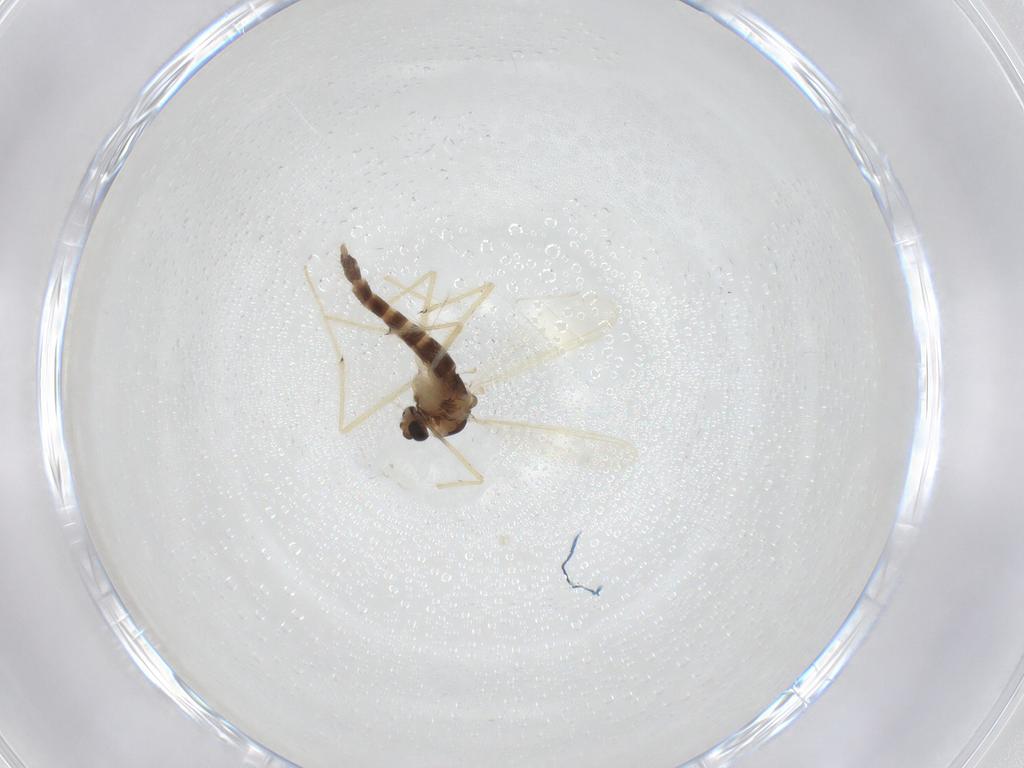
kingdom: Animalia
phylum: Arthropoda
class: Insecta
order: Diptera
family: Chironomidae
